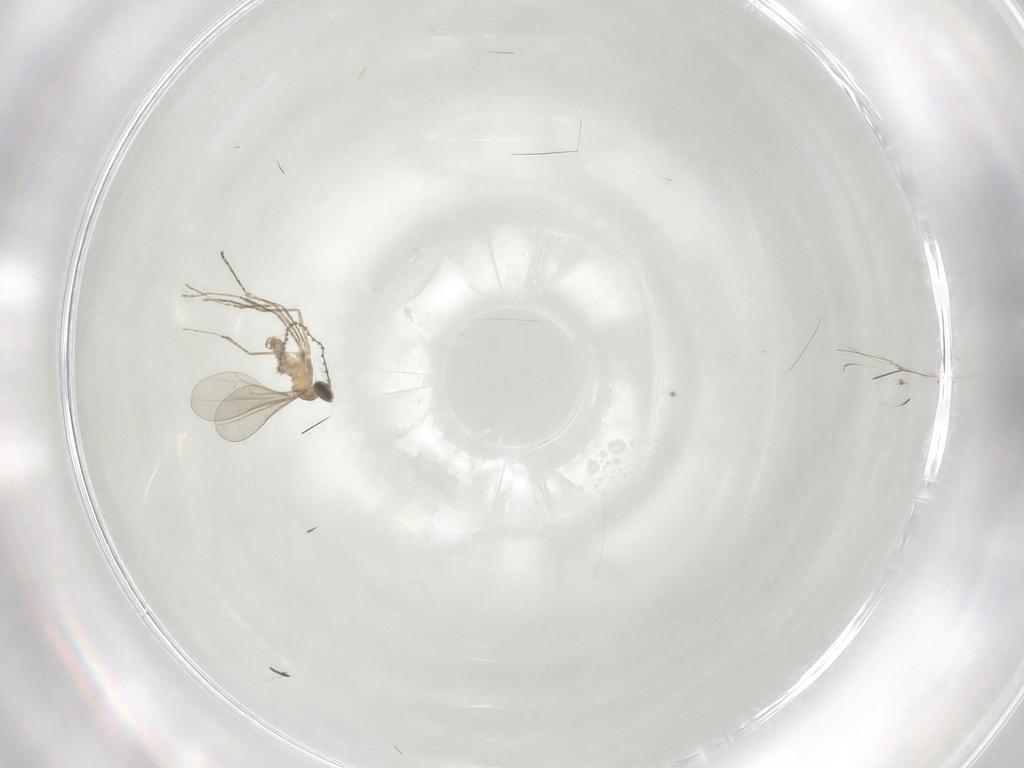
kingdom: Animalia
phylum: Arthropoda
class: Insecta
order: Diptera
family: Cecidomyiidae
